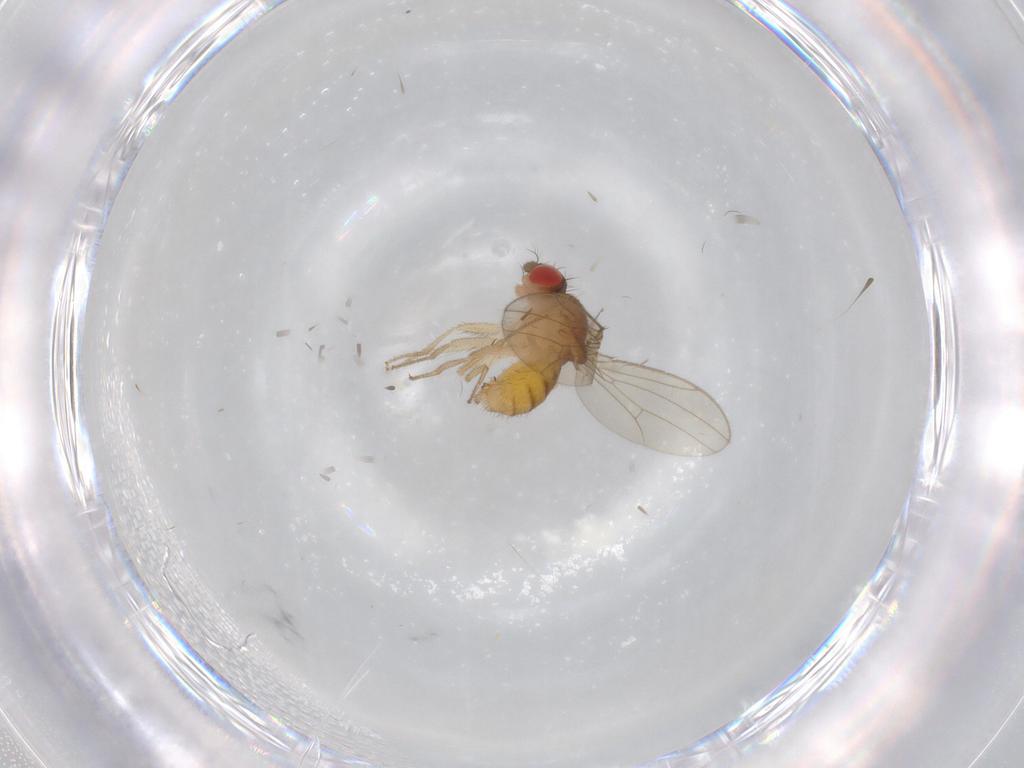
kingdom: Animalia
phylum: Arthropoda
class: Insecta
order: Diptera
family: Drosophilidae
